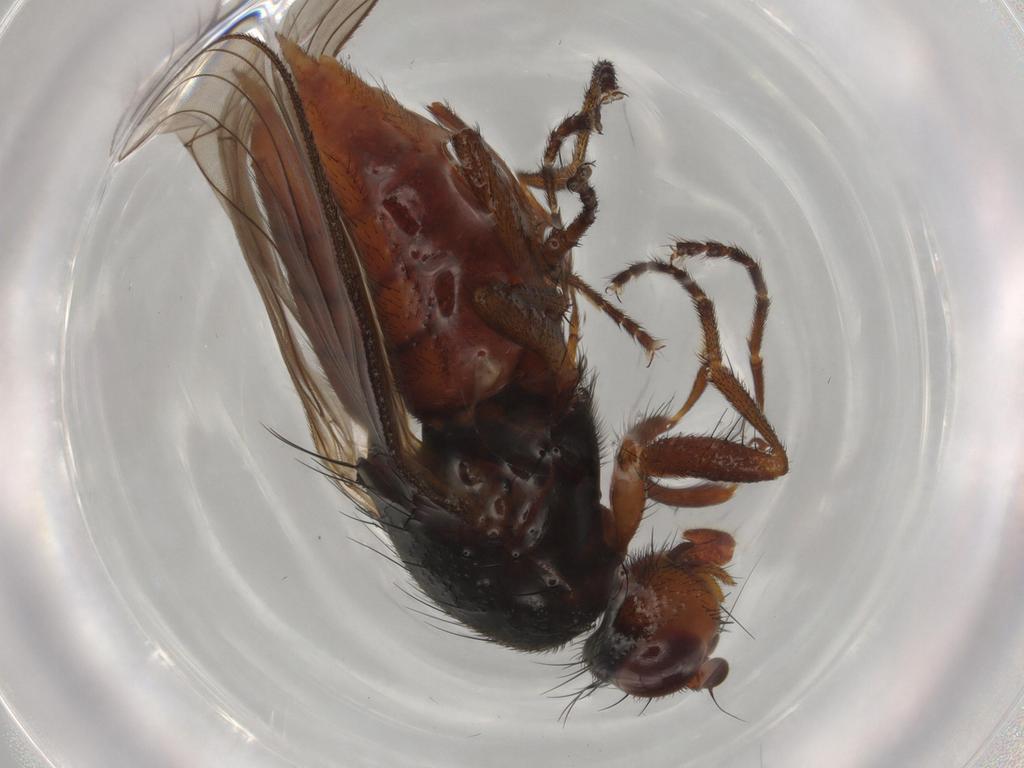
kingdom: Animalia
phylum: Arthropoda
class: Insecta
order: Diptera
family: Heleomyzidae
